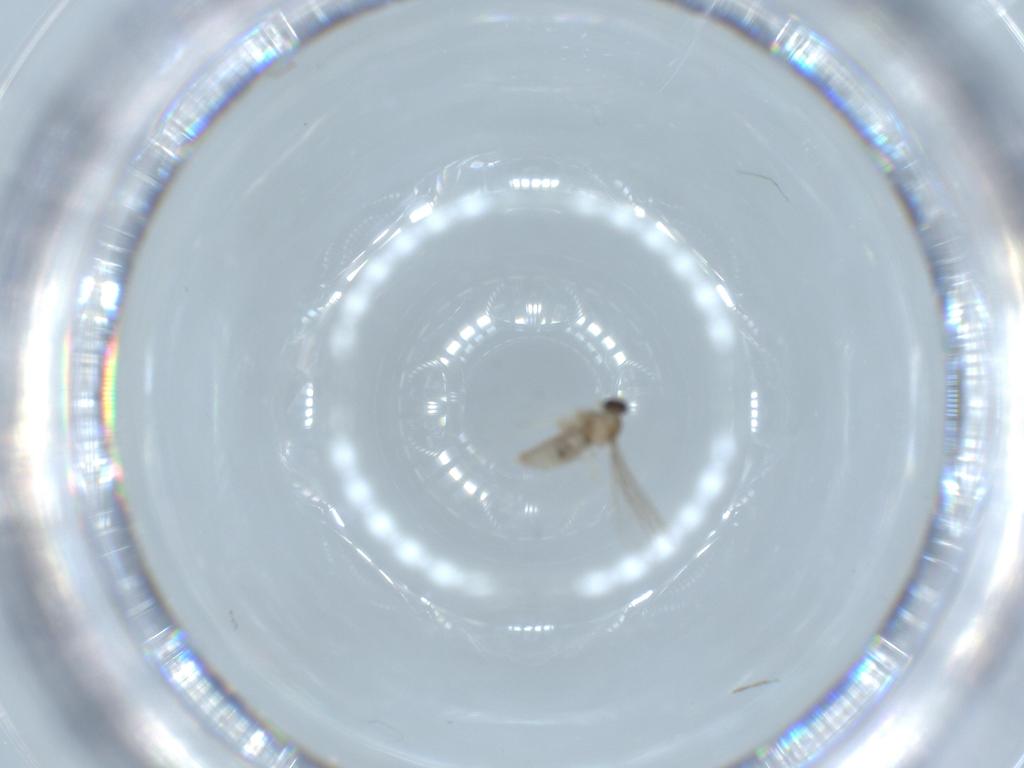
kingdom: Animalia
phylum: Arthropoda
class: Insecta
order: Diptera
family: Cecidomyiidae
